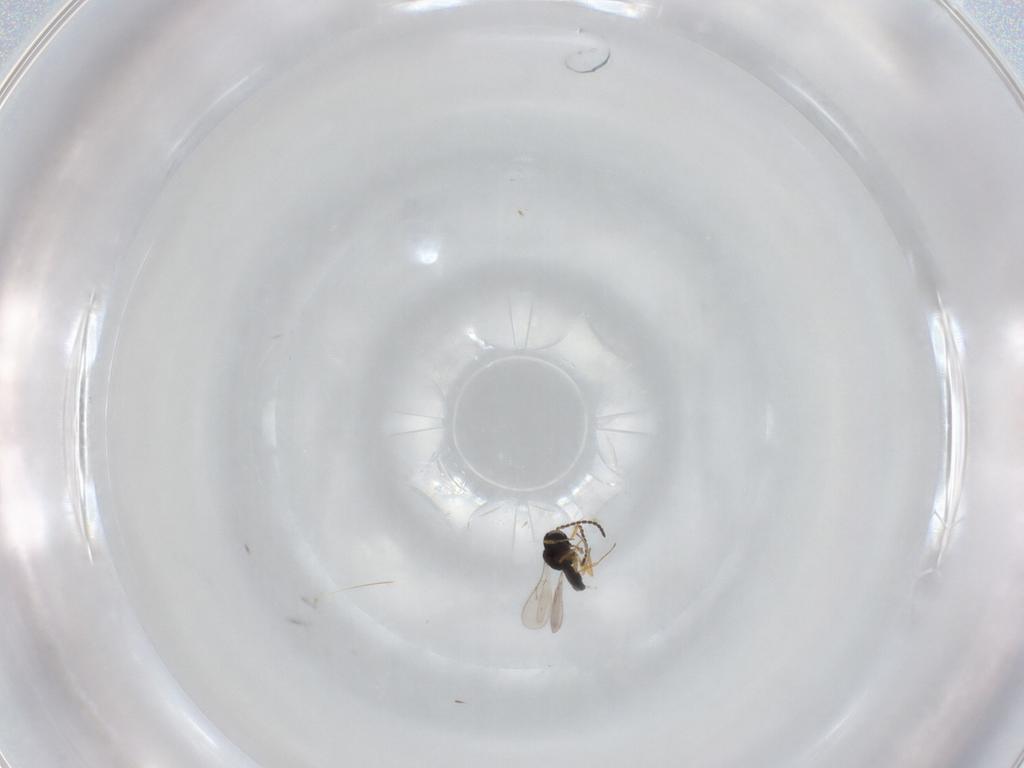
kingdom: Animalia
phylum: Arthropoda
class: Insecta
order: Hymenoptera
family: Scelionidae
